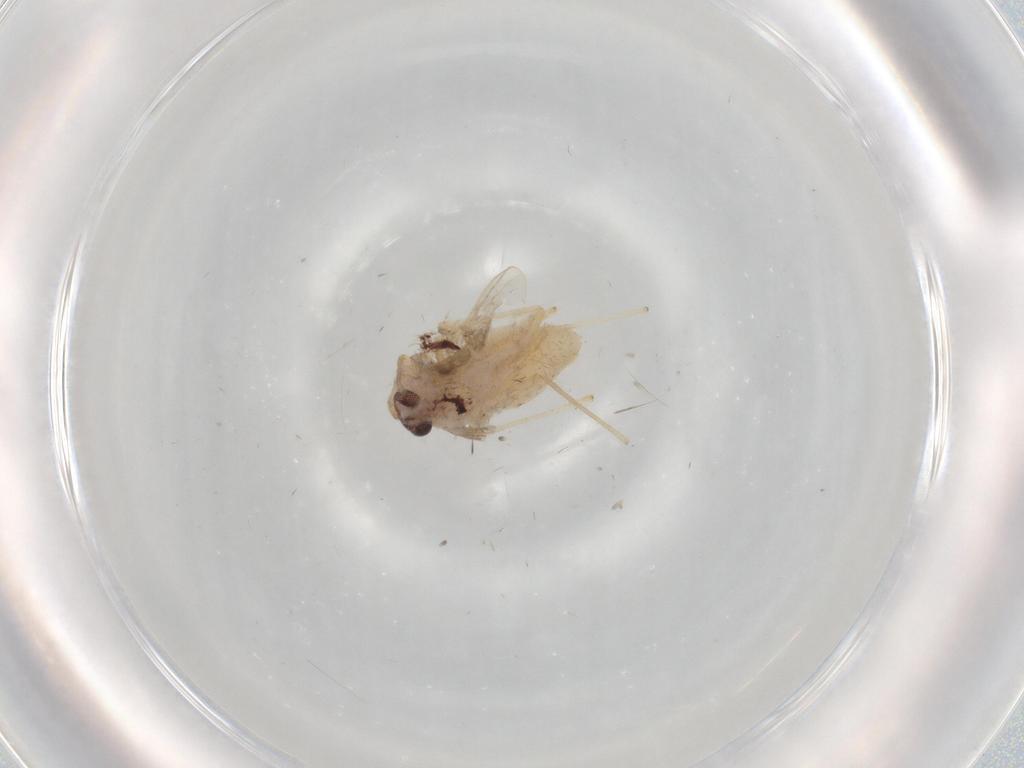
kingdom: Animalia
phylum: Arthropoda
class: Insecta
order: Diptera
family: Chironomidae
